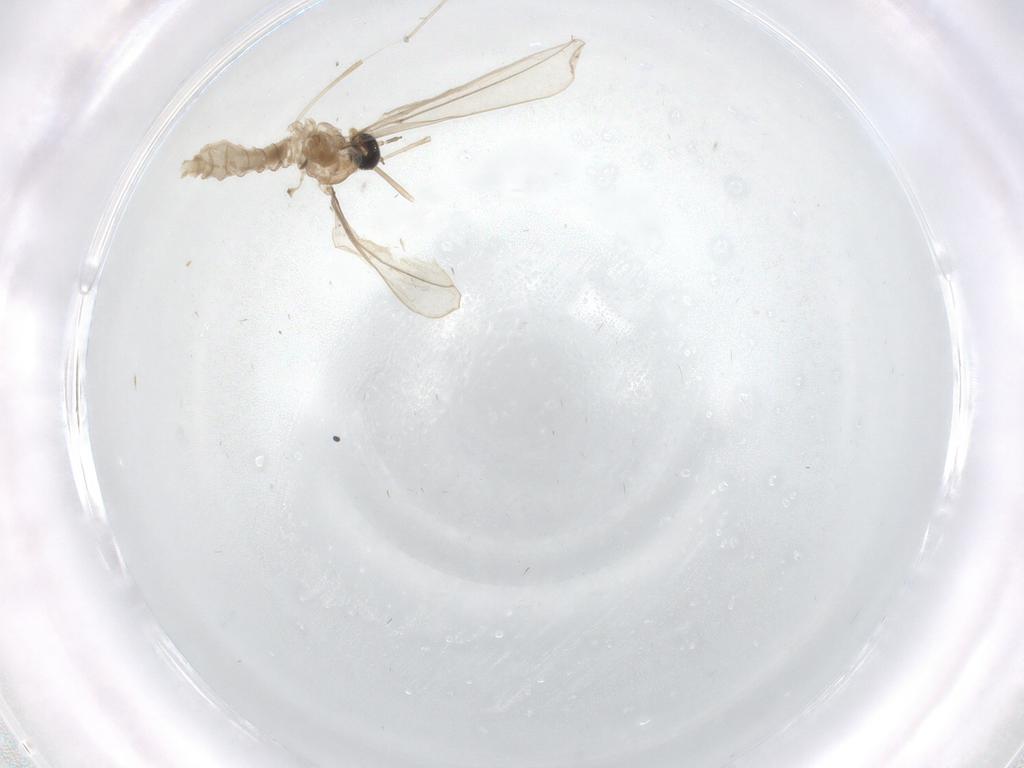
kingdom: Animalia
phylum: Arthropoda
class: Insecta
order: Diptera
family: Cecidomyiidae
